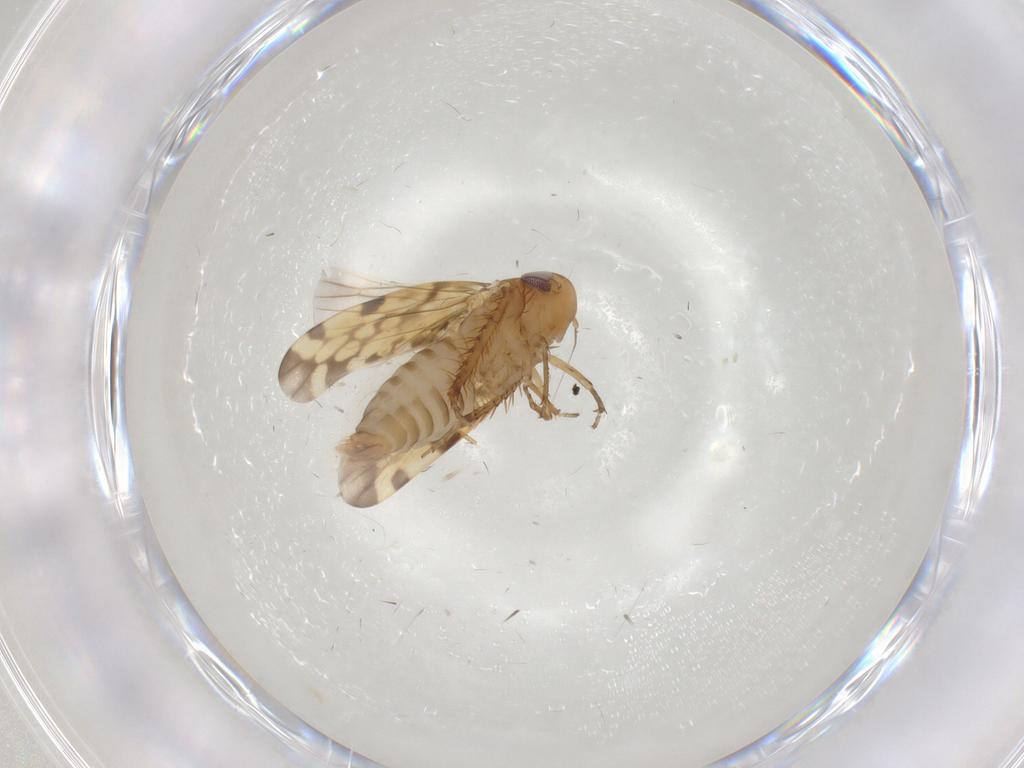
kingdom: Animalia
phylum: Arthropoda
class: Insecta
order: Hemiptera
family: Cicadellidae
